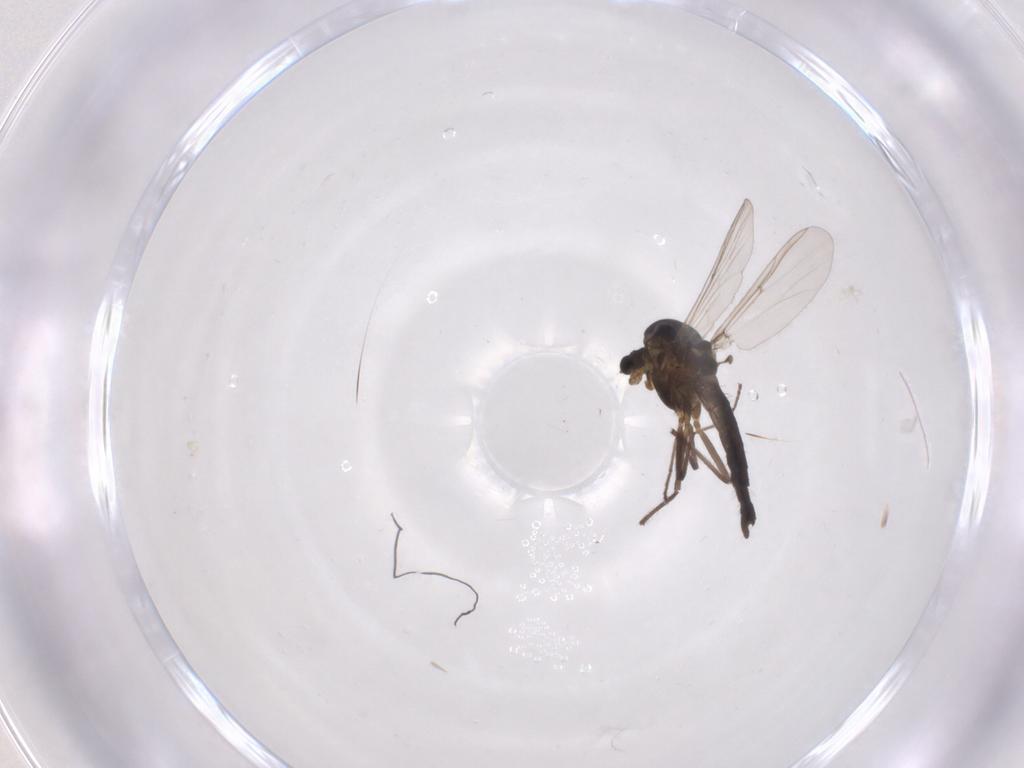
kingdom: Animalia
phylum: Arthropoda
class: Insecta
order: Diptera
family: Chironomidae
